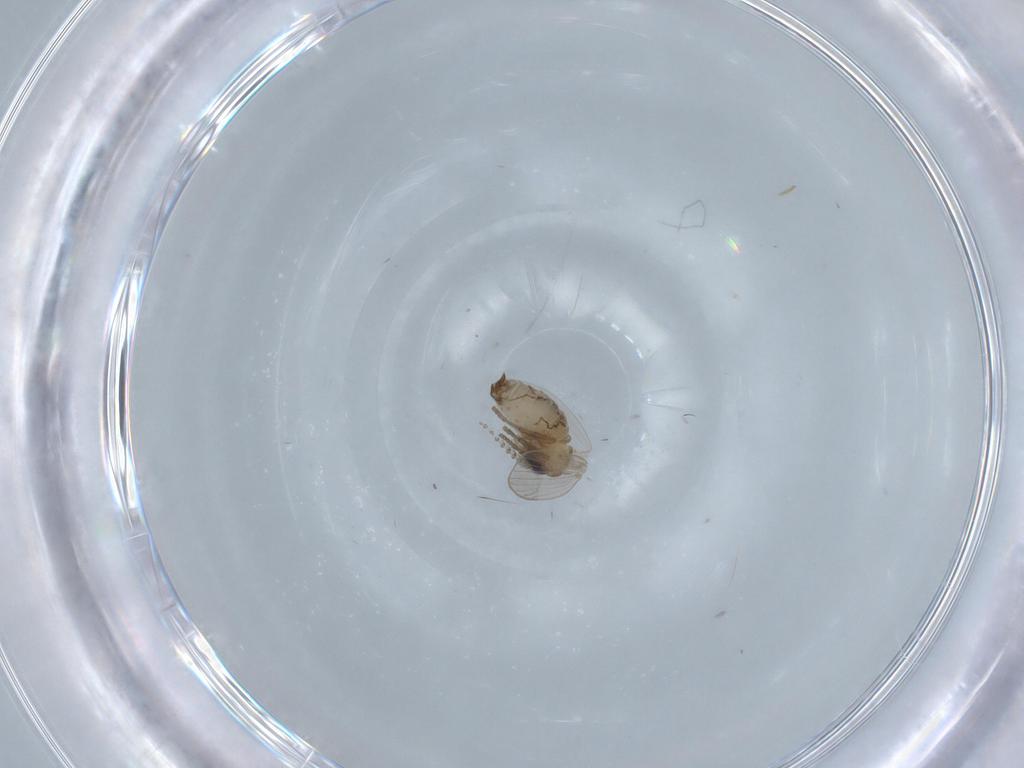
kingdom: Animalia
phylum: Arthropoda
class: Insecta
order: Diptera
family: Psychodidae
